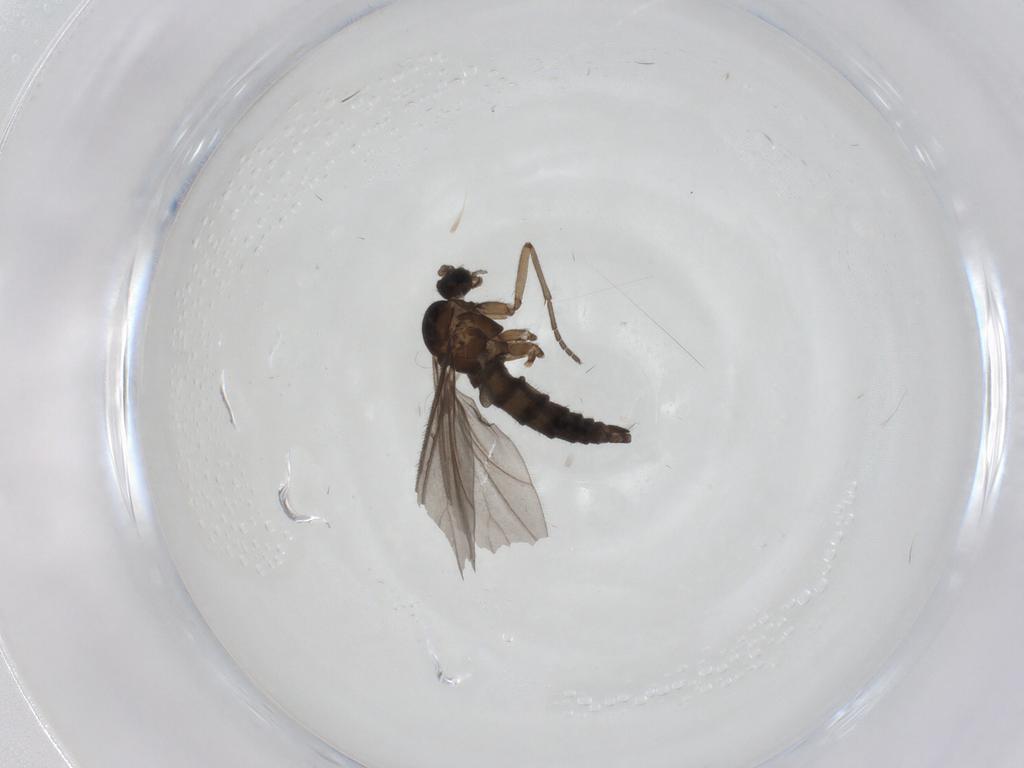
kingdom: Animalia
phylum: Arthropoda
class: Insecta
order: Diptera
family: Sciaridae
